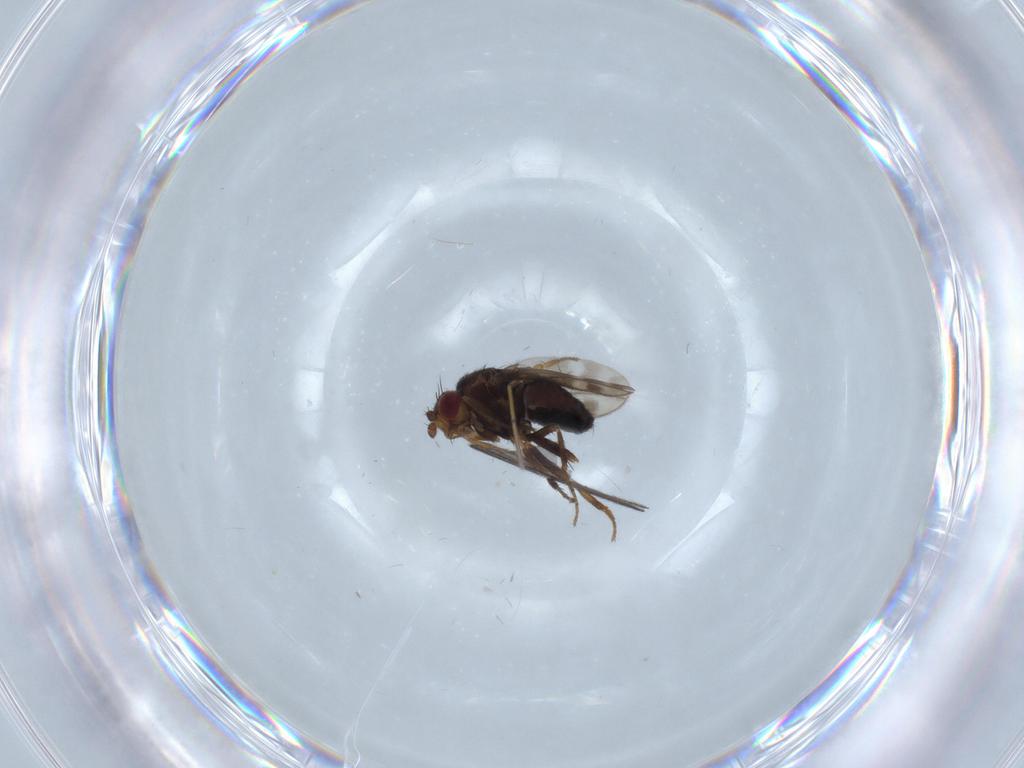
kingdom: Animalia
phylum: Arthropoda
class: Insecta
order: Diptera
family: Sphaeroceridae
